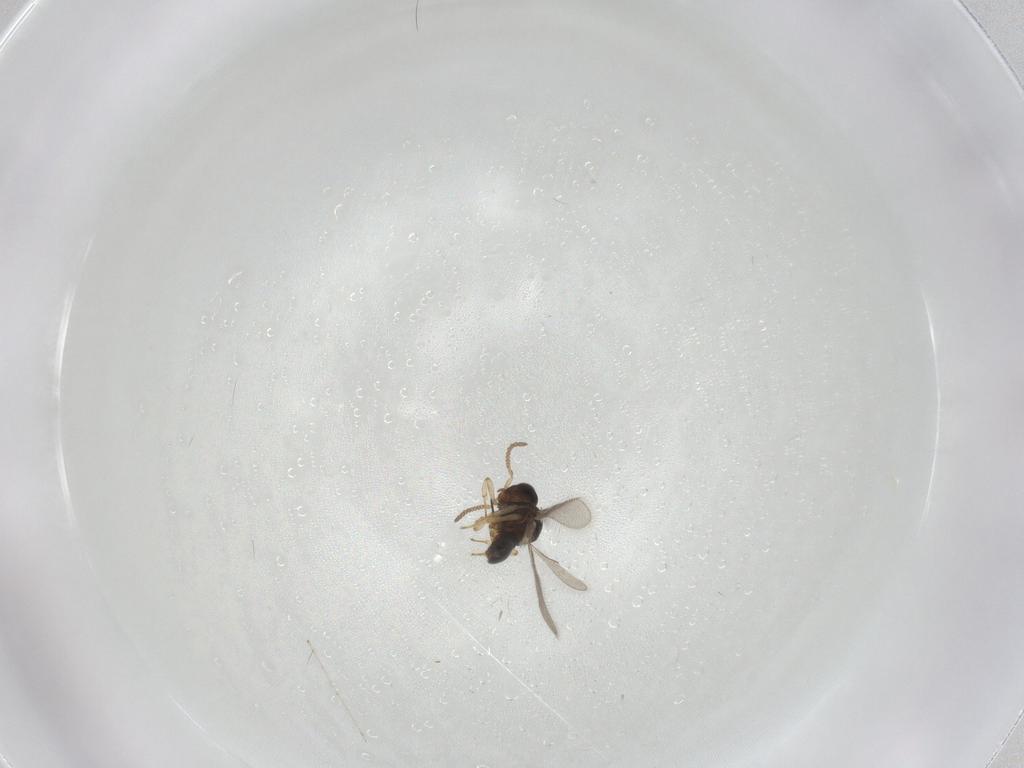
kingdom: Animalia
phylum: Arthropoda
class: Insecta
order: Hymenoptera
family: Scelionidae
